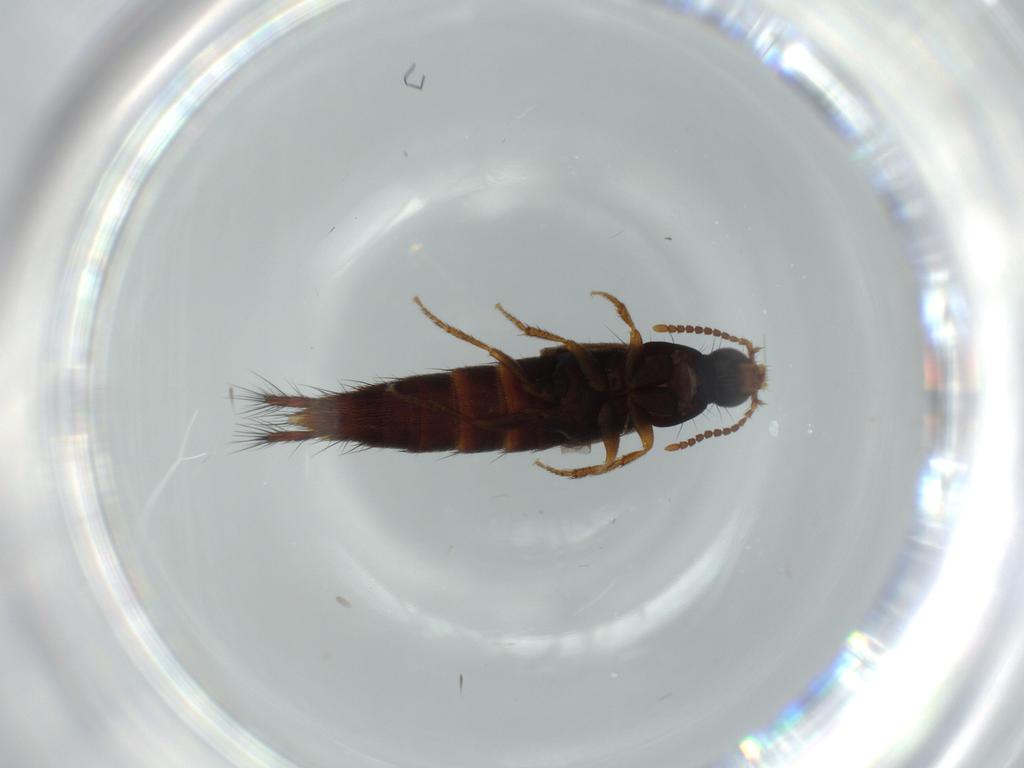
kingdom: Animalia
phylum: Arthropoda
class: Insecta
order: Coleoptera
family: Staphylinidae
